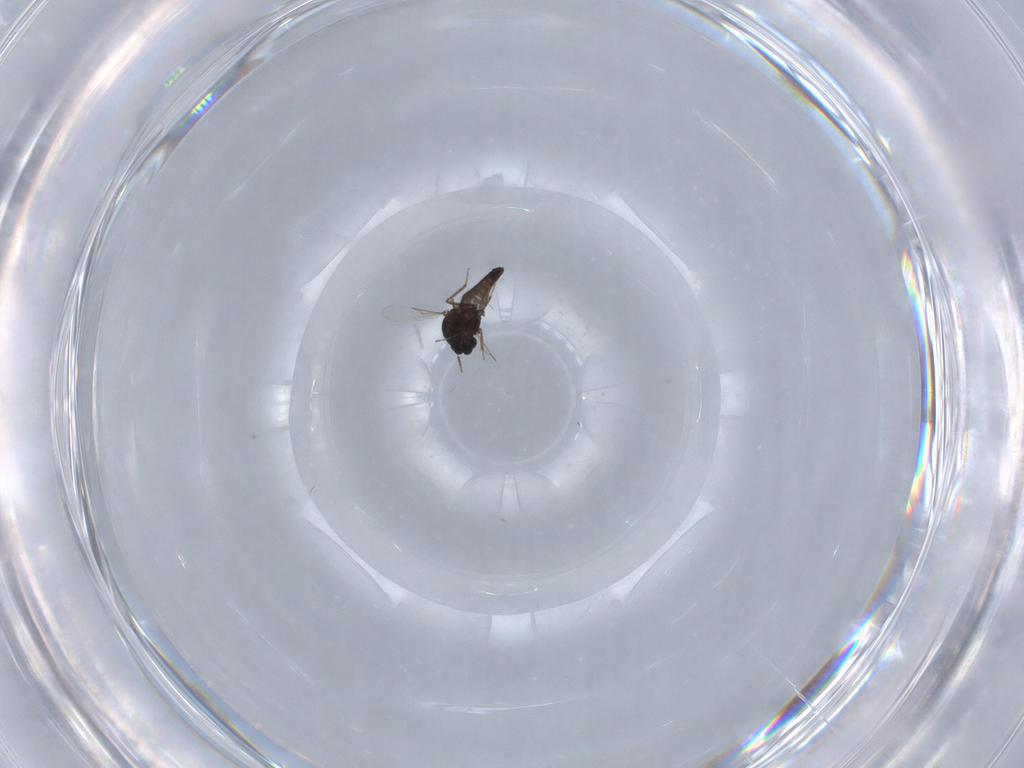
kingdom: Animalia
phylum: Arthropoda
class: Insecta
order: Diptera
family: Ceratopogonidae
